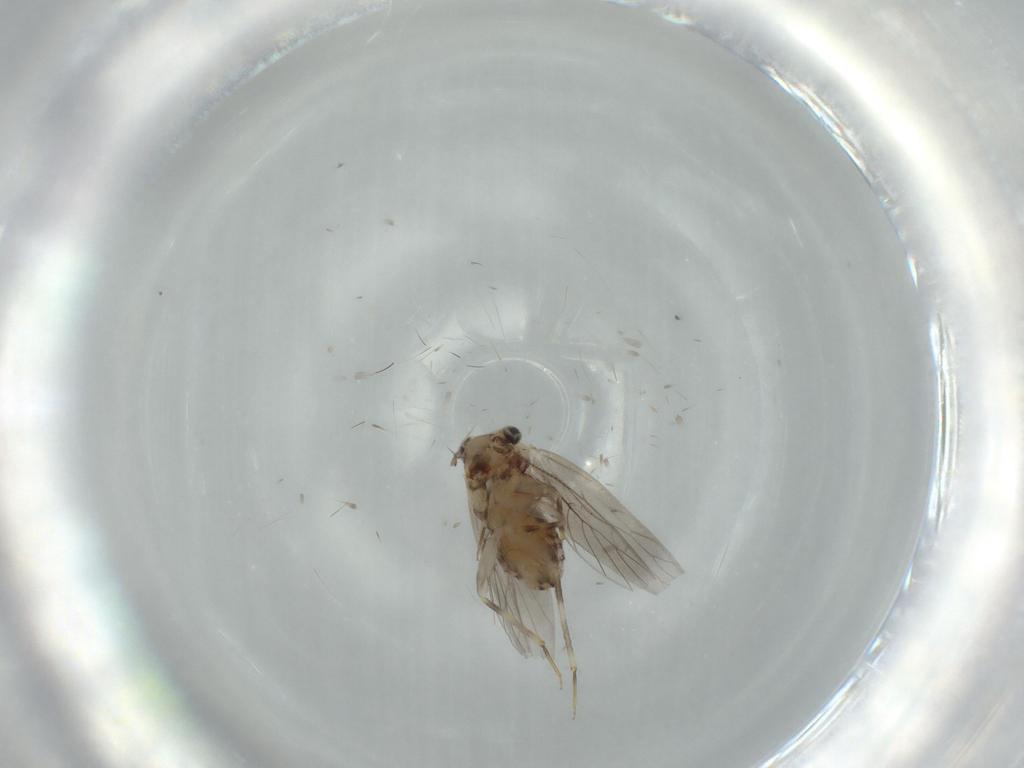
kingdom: Animalia
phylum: Arthropoda
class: Insecta
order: Psocodea
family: Lepidopsocidae
